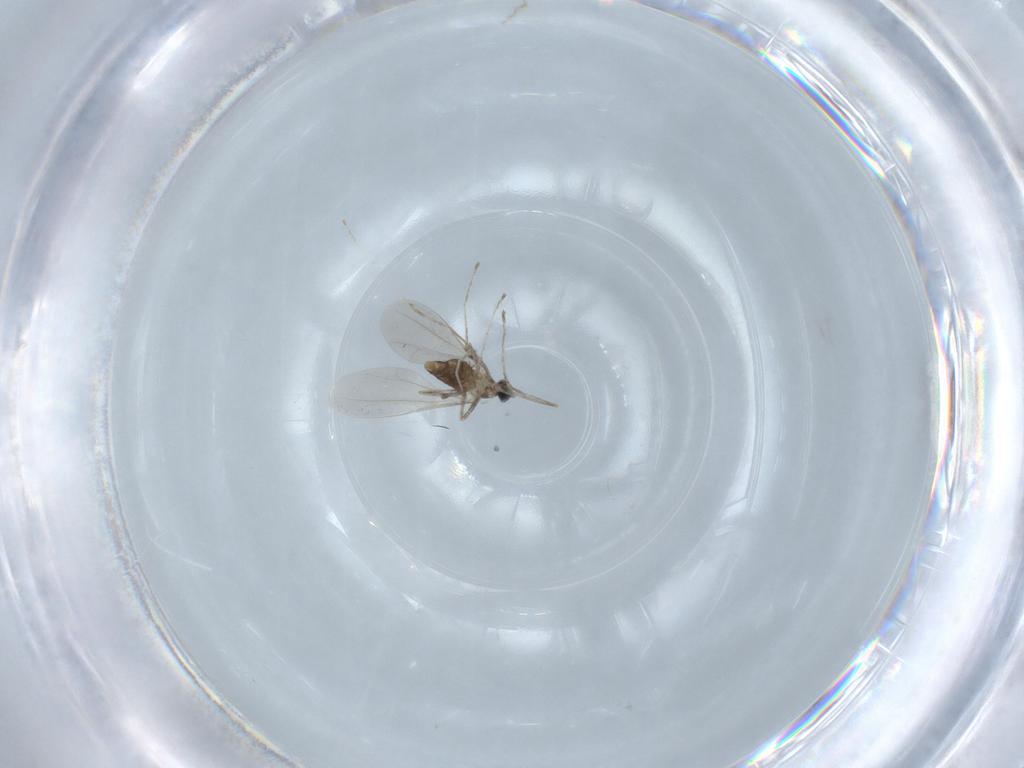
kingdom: Animalia
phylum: Arthropoda
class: Insecta
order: Diptera
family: Cecidomyiidae
